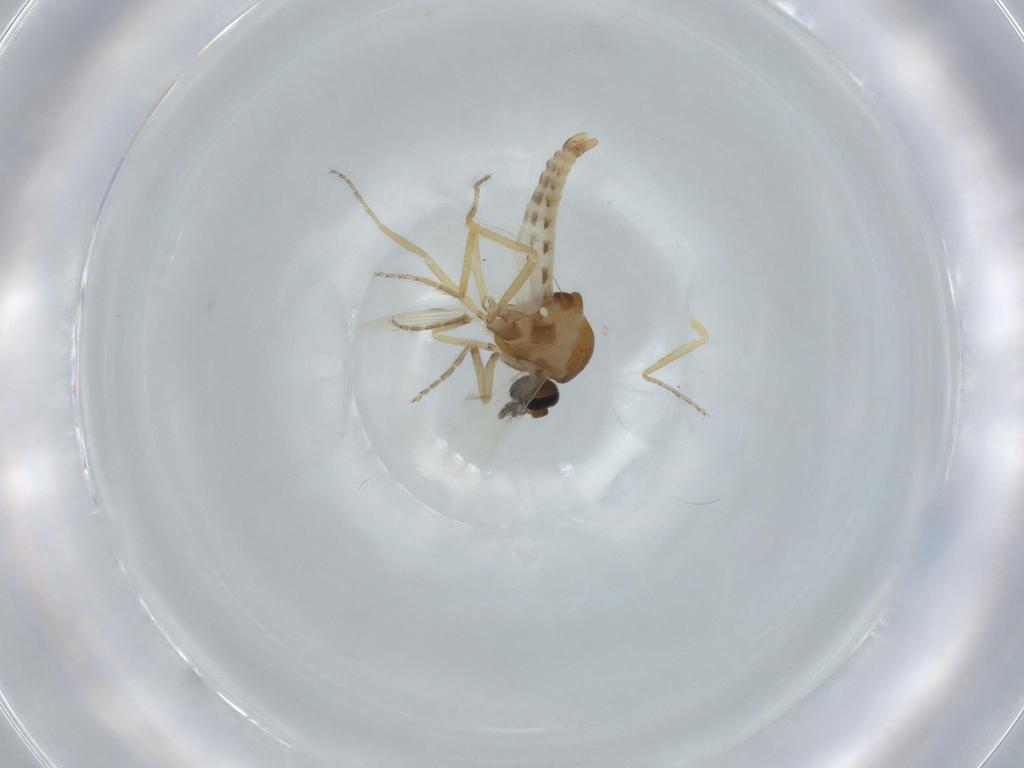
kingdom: Animalia
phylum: Arthropoda
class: Insecta
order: Diptera
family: Sciaridae
